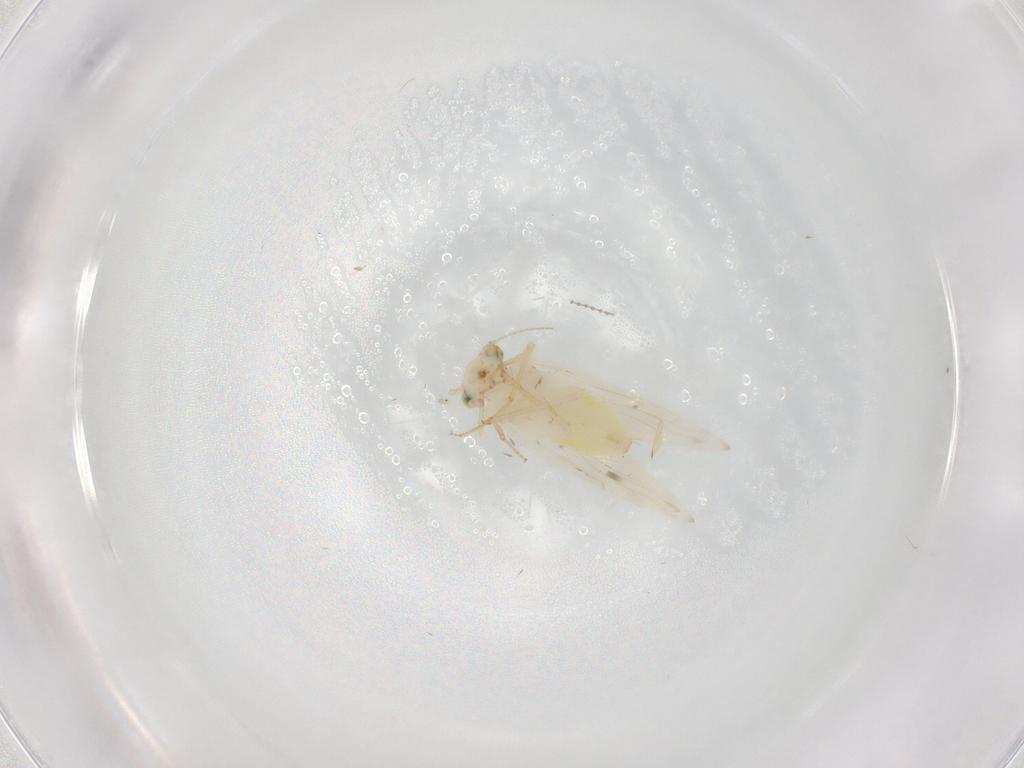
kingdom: Animalia
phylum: Arthropoda
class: Insecta
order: Psocodea
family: Lepidopsocidae
